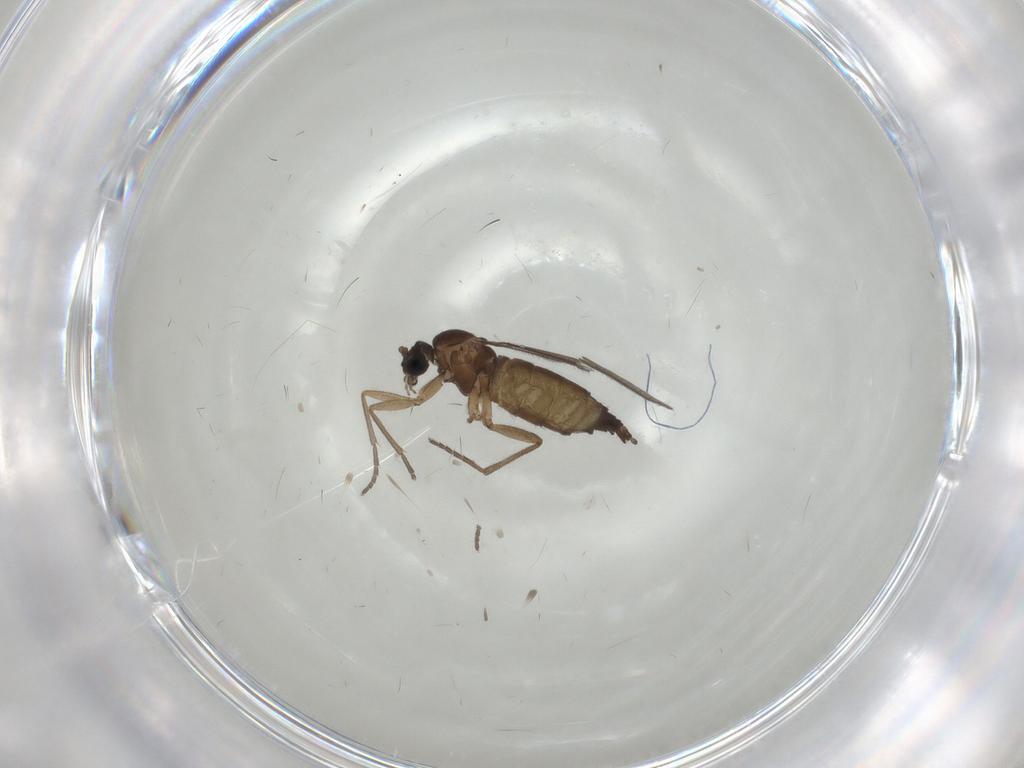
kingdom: Animalia
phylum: Arthropoda
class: Insecta
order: Diptera
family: Sciaridae
